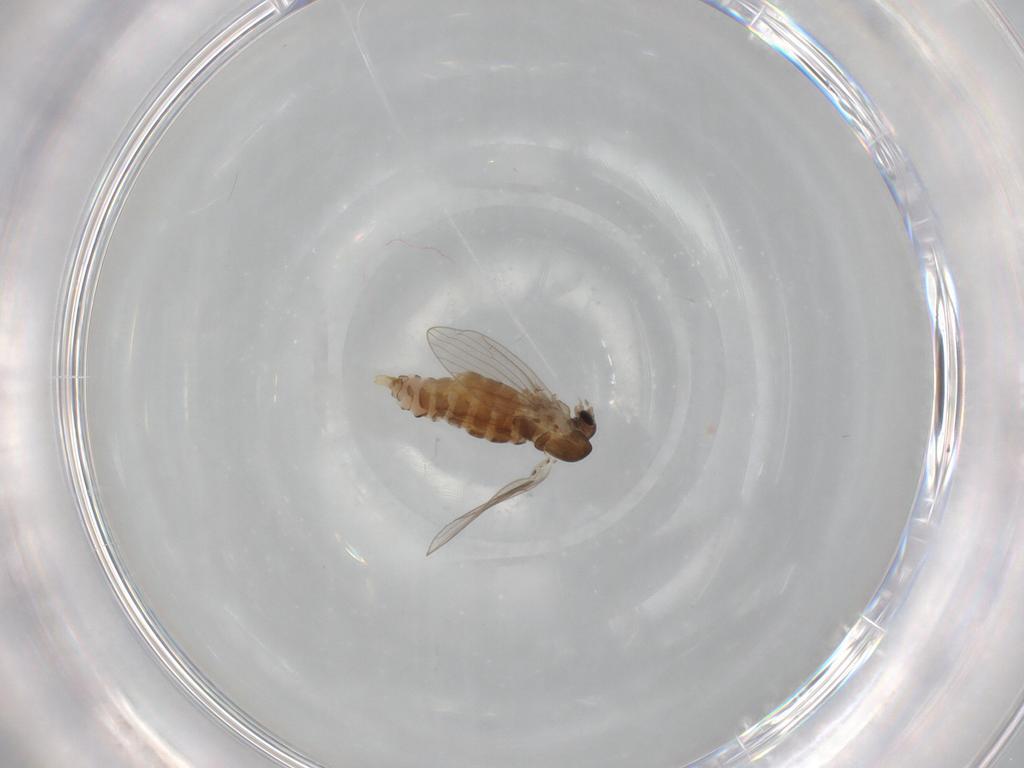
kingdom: Animalia
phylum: Arthropoda
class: Insecta
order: Diptera
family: Psychodidae
